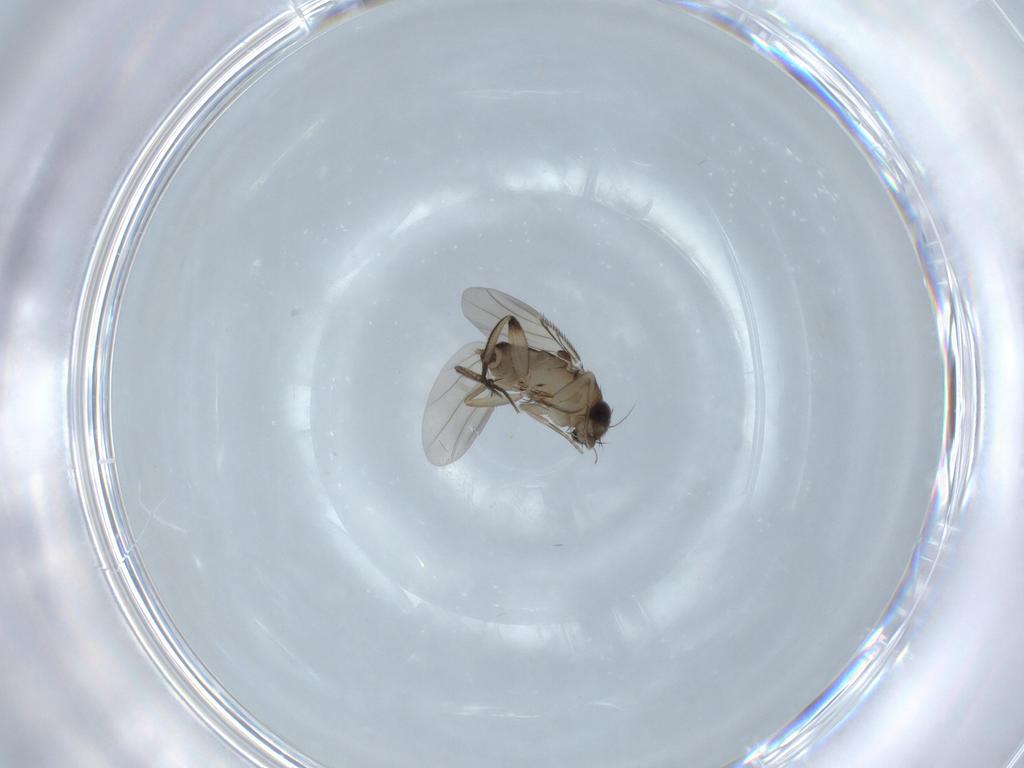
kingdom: Animalia
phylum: Arthropoda
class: Insecta
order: Diptera
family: Phoridae
